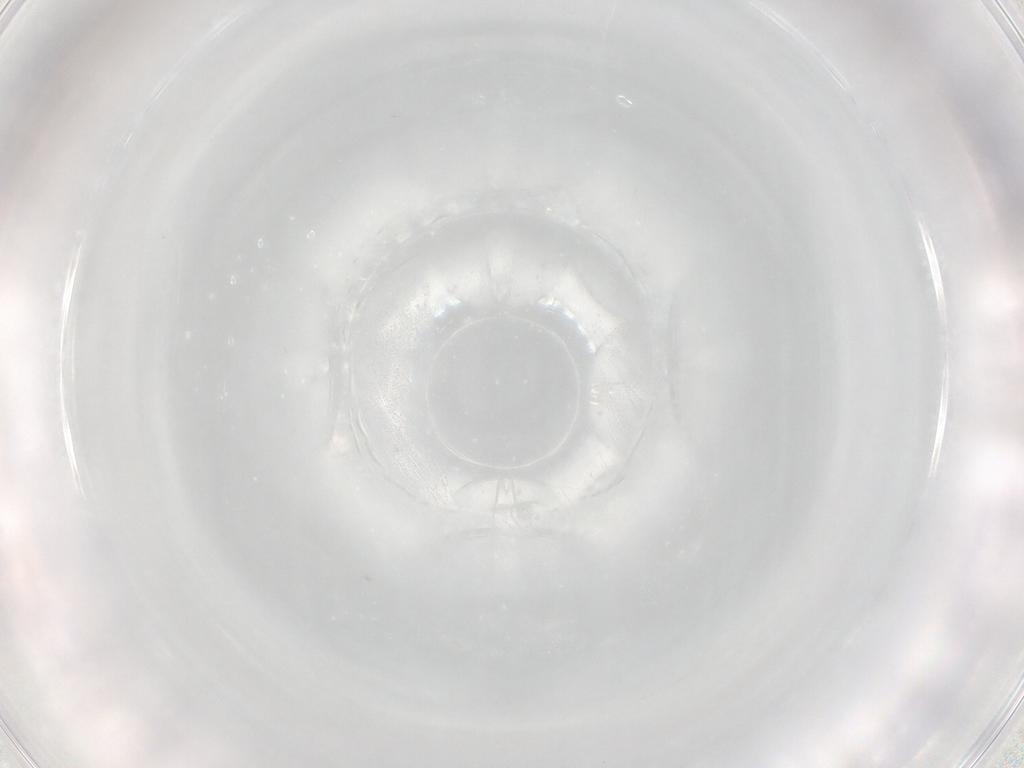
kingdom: Animalia
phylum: Arthropoda
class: Insecta
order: Hymenoptera
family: Eulophidae
